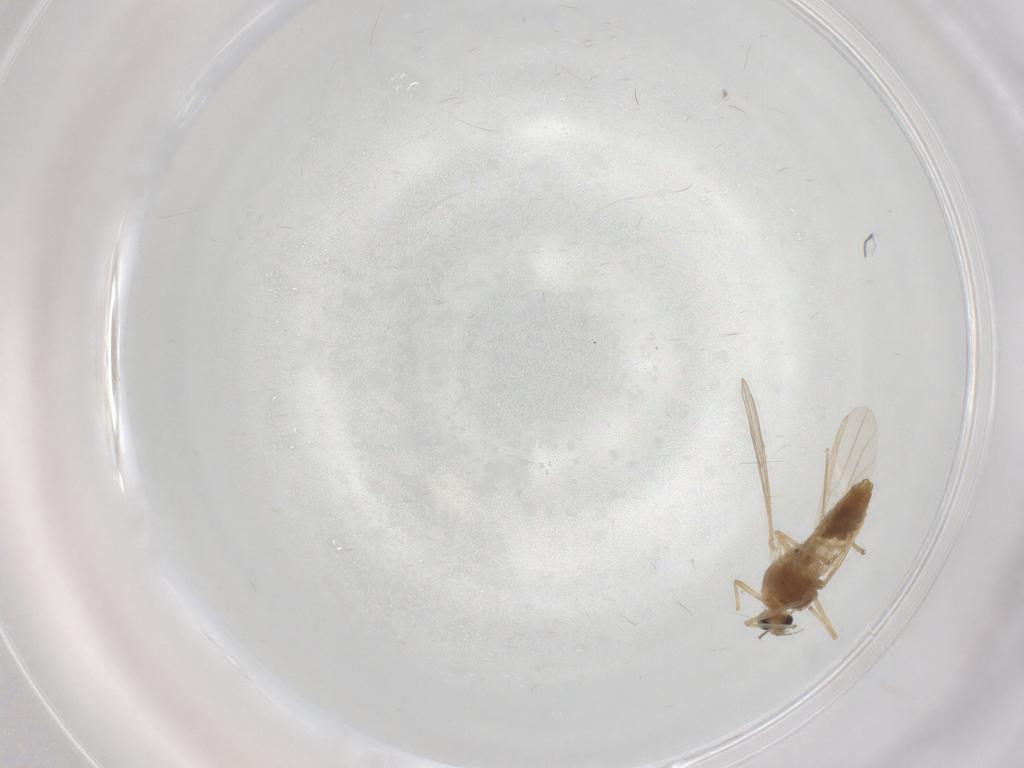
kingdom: Animalia
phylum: Arthropoda
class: Insecta
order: Diptera
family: Chironomidae
